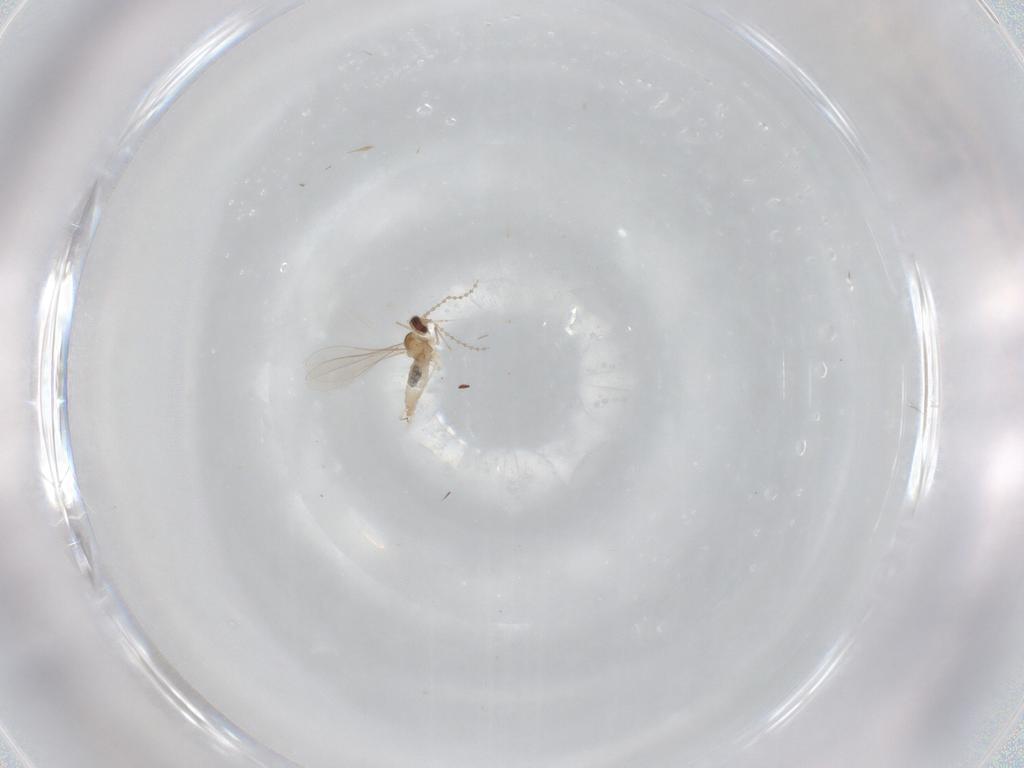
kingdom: Animalia
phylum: Arthropoda
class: Insecta
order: Diptera
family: Cecidomyiidae
